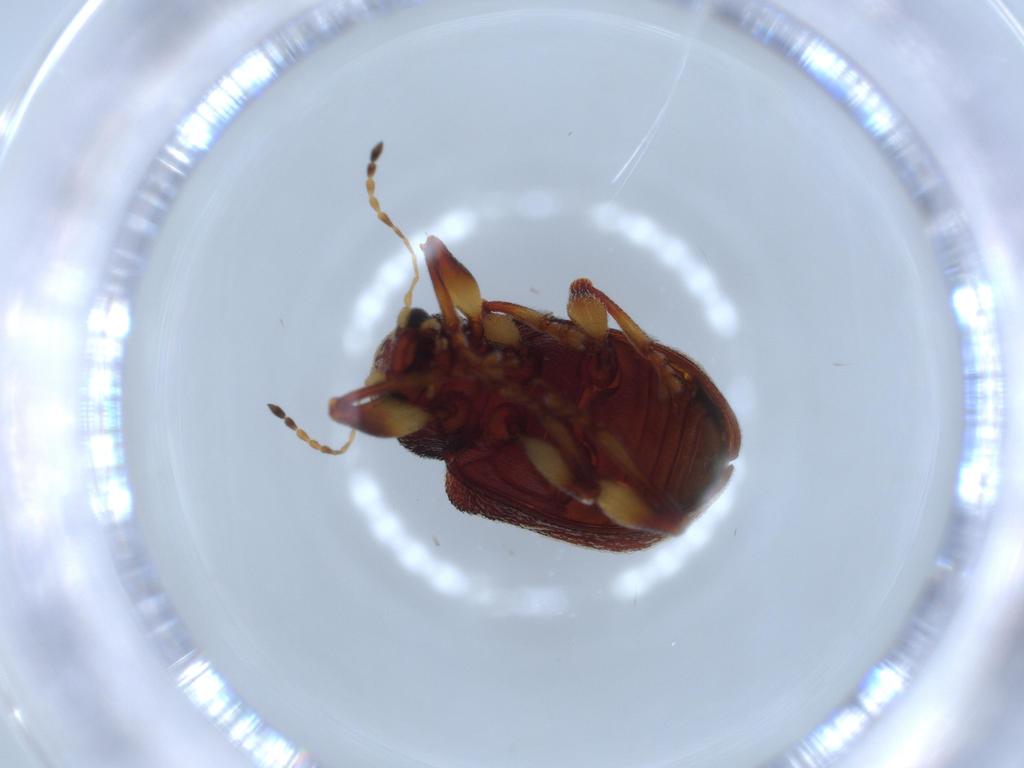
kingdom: Animalia
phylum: Arthropoda
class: Insecta
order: Coleoptera
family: Chrysomelidae
